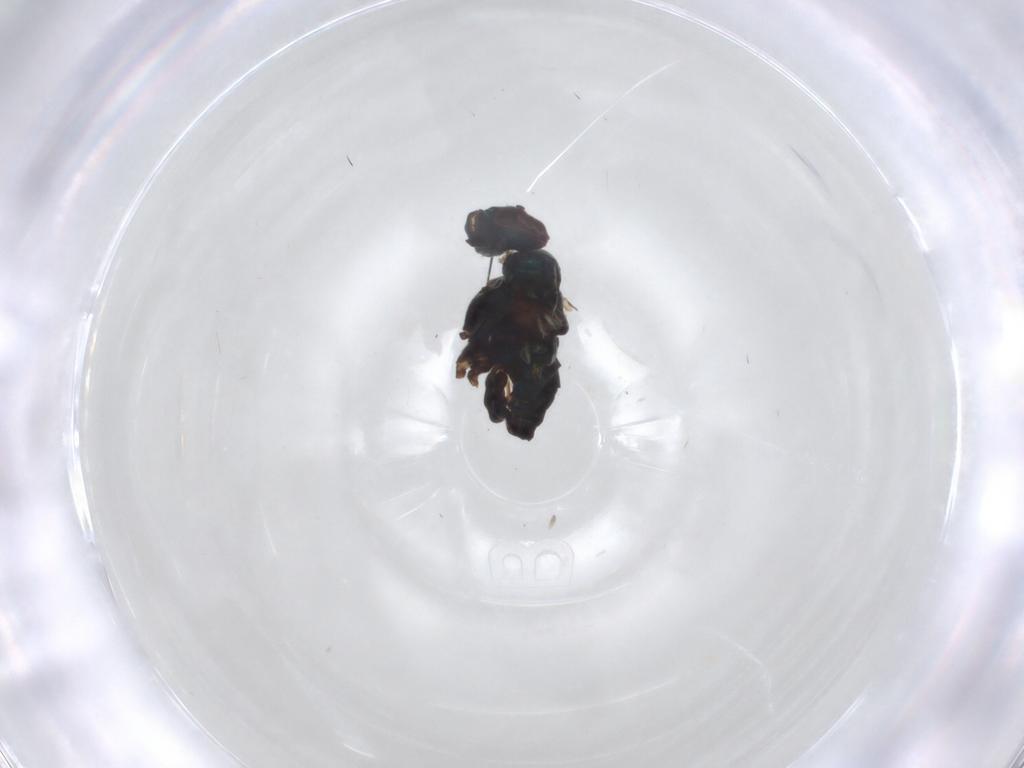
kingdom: Animalia
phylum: Arthropoda
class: Insecta
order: Diptera
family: Dolichopodidae
